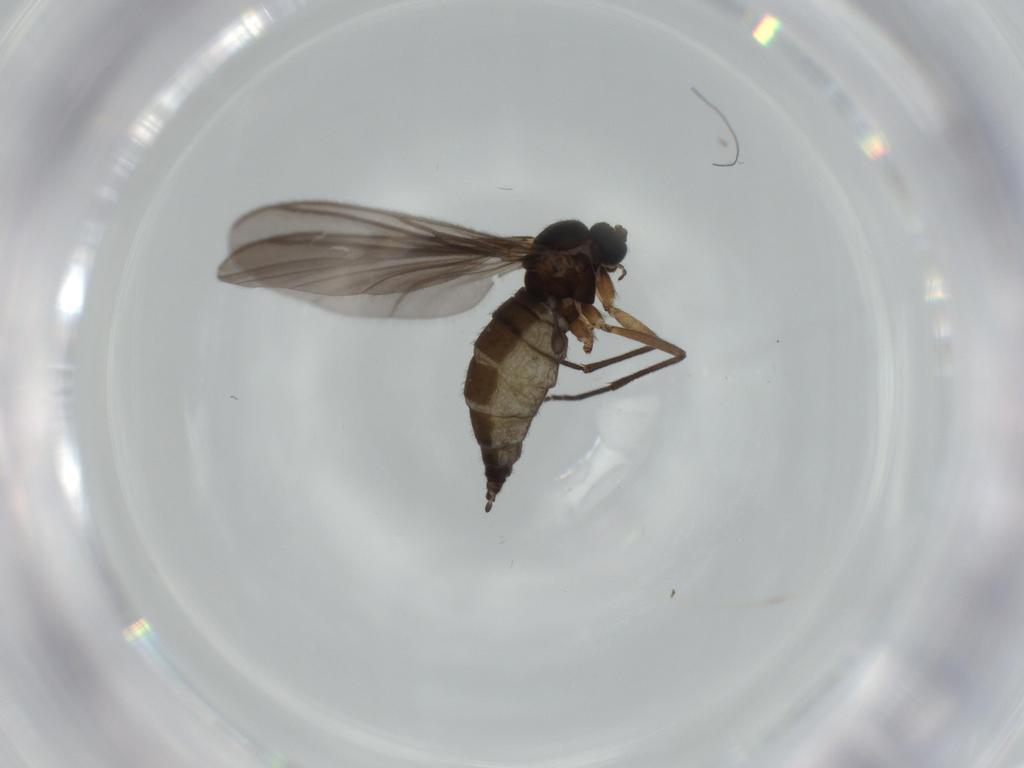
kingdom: Animalia
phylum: Arthropoda
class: Insecta
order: Diptera
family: Sciaridae
